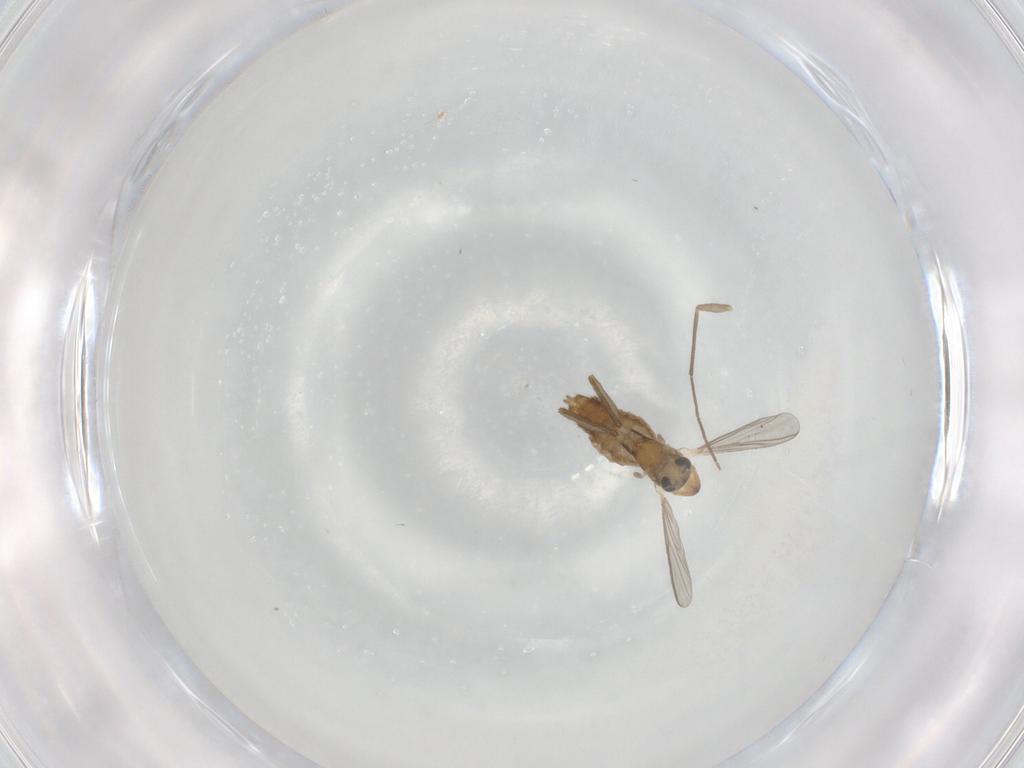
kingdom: Animalia
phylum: Arthropoda
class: Insecta
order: Diptera
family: Chironomidae
